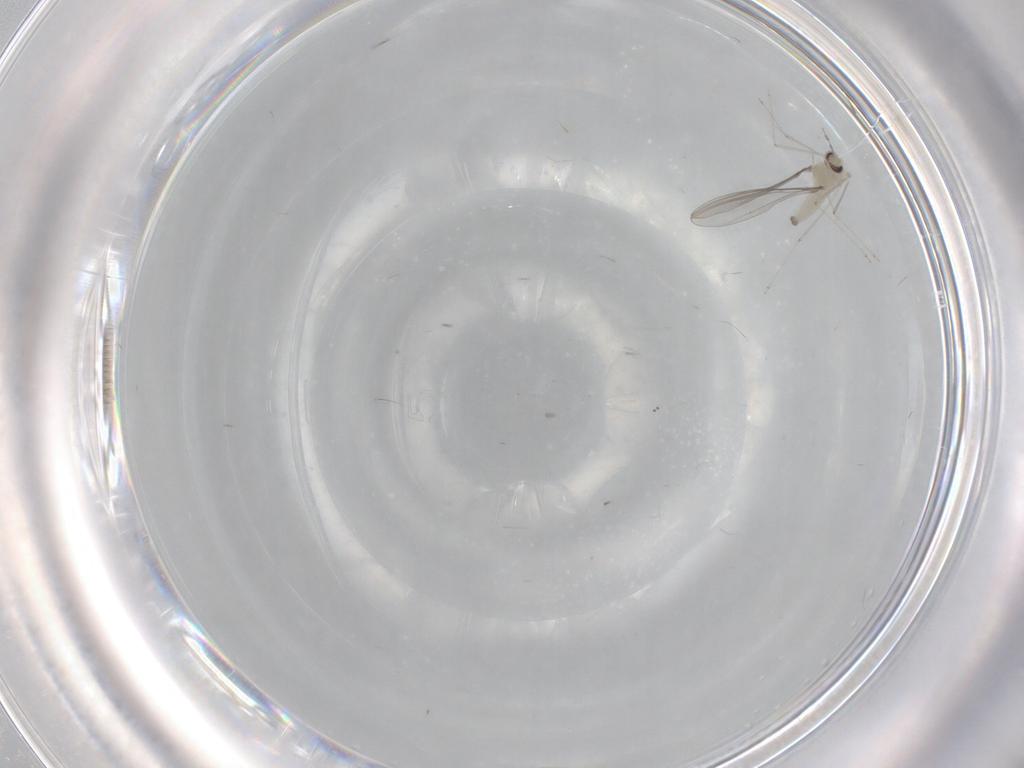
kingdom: Animalia
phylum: Arthropoda
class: Insecta
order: Diptera
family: Cecidomyiidae
